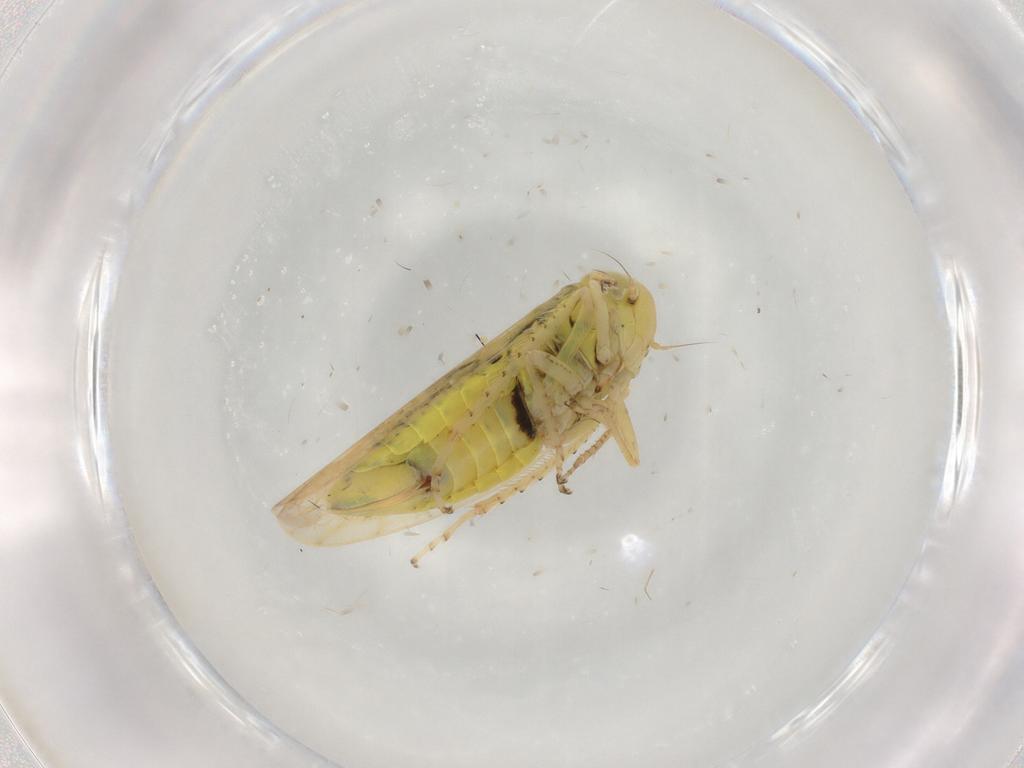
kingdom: Animalia
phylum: Arthropoda
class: Insecta
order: Hemiptera
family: Cicadellidae
